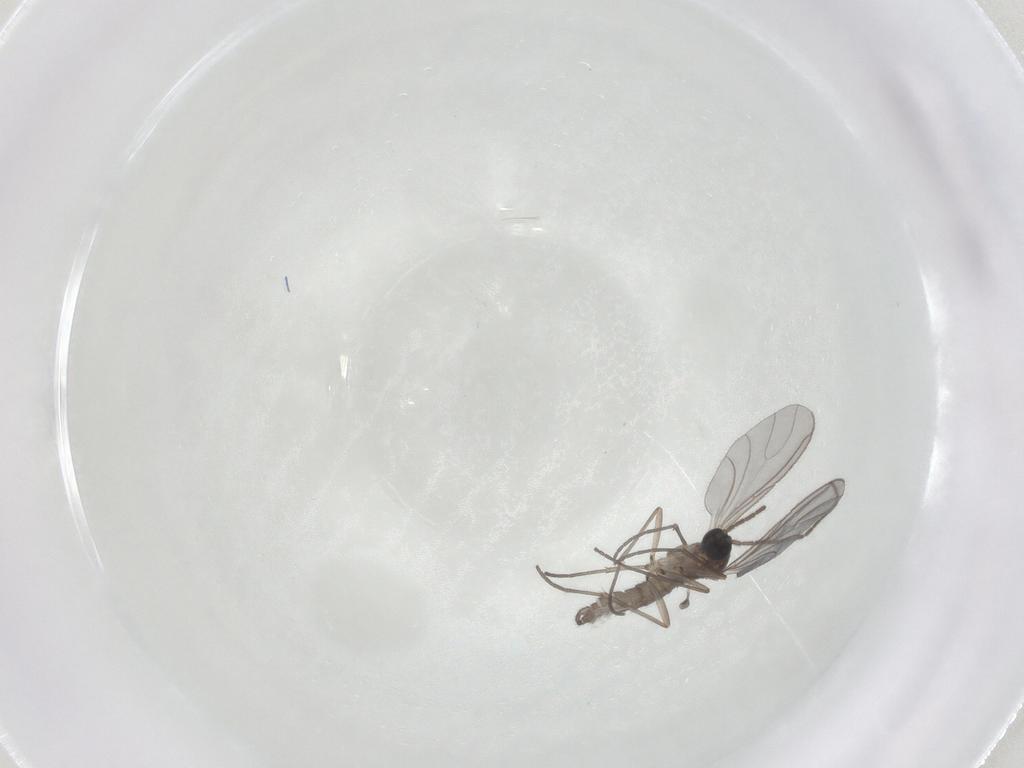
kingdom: Animalia
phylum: Arthropoda
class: Insecta
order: Diptera
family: Sciaridae
